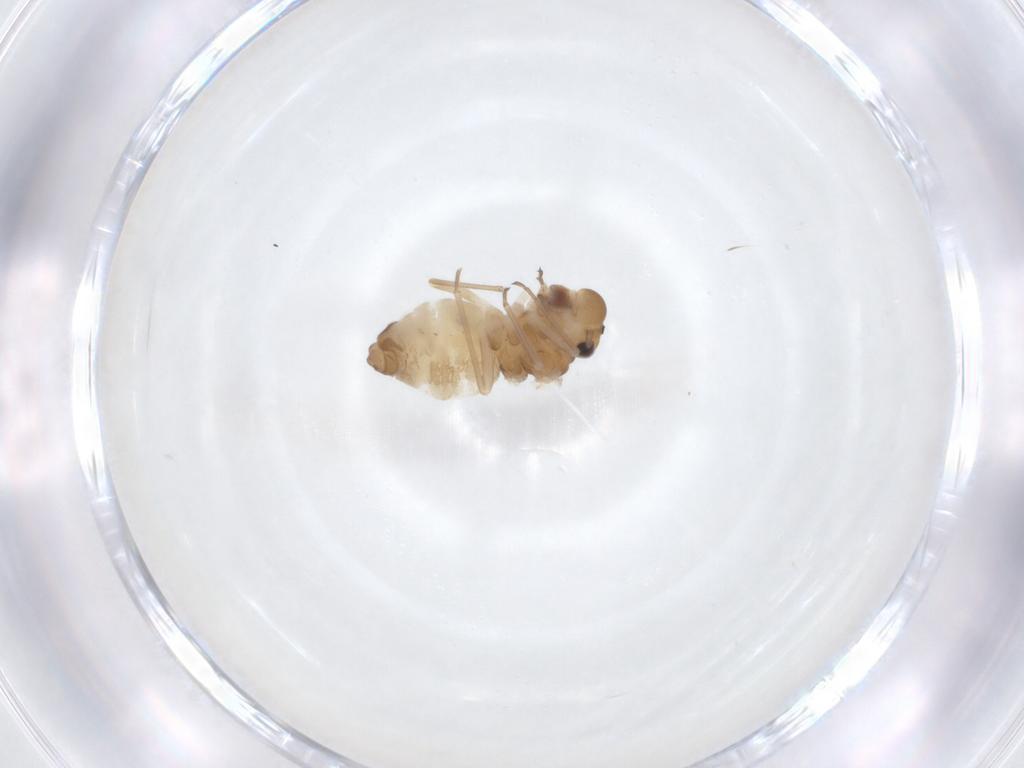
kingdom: Animalia
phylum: Arthropoda
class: Insecta
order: Psocodea
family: Philotarsidae
